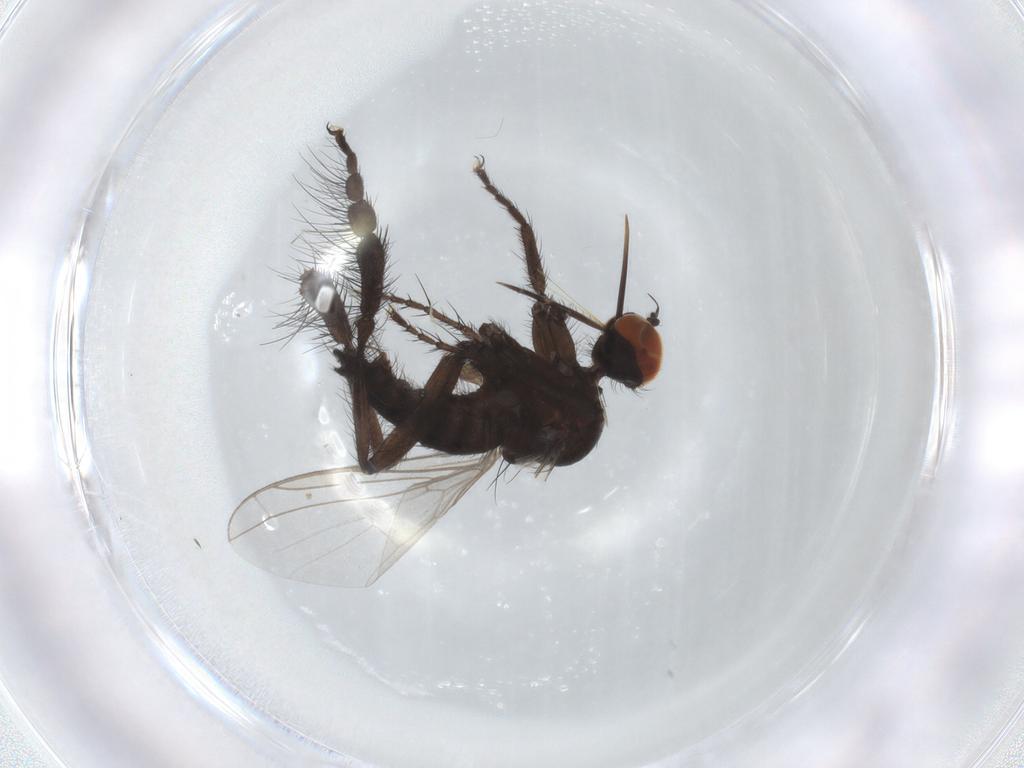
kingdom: Animalia
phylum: Arthropoda
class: Insecta
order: Diptera
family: Empididae
